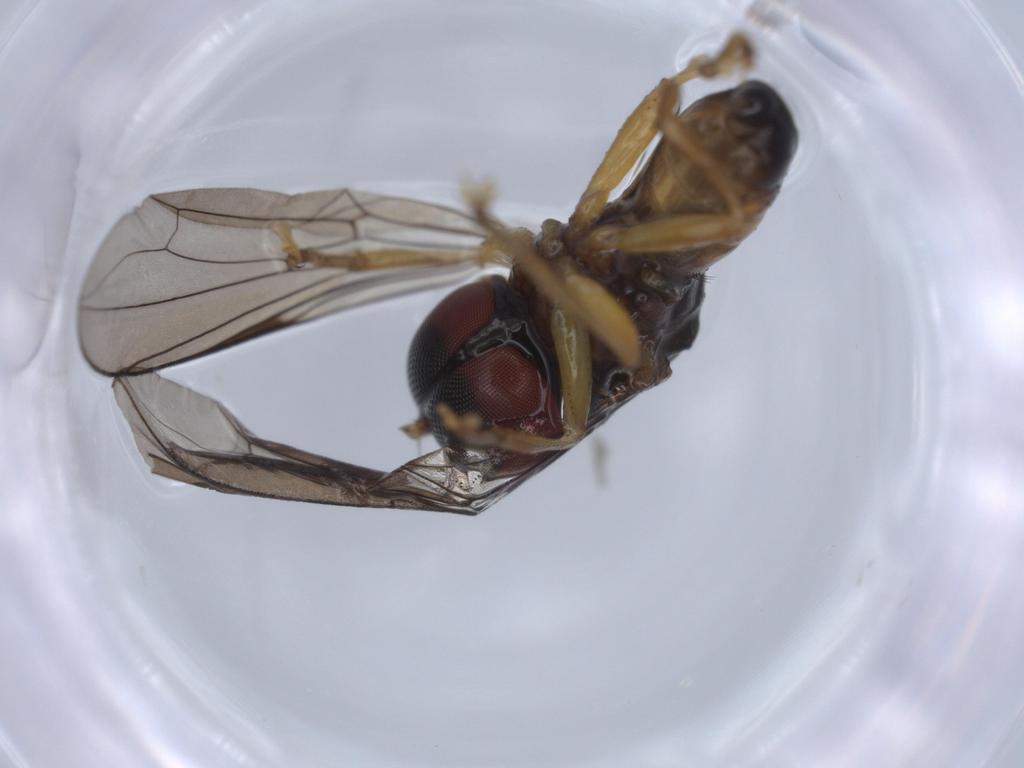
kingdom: Animalia
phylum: Arthropoda
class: Insecta
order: Diptera
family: Pipunculidae
